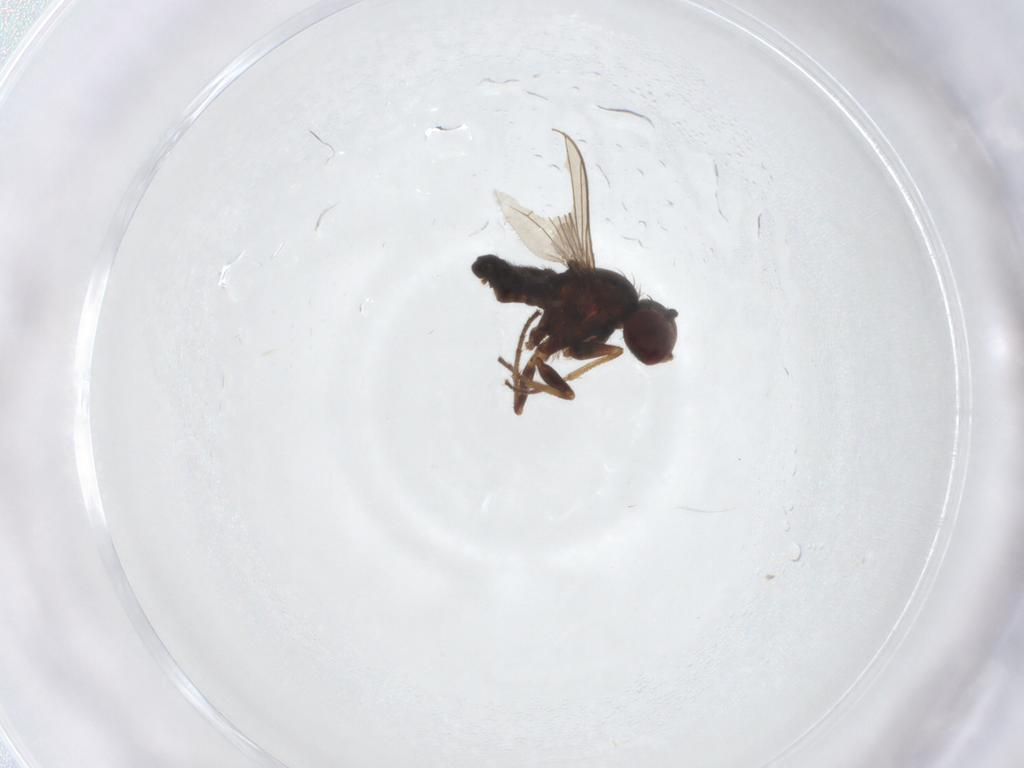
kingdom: Animalia
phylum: Arthropoda
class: Insecta
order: Diptera
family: Dolichopodidae
